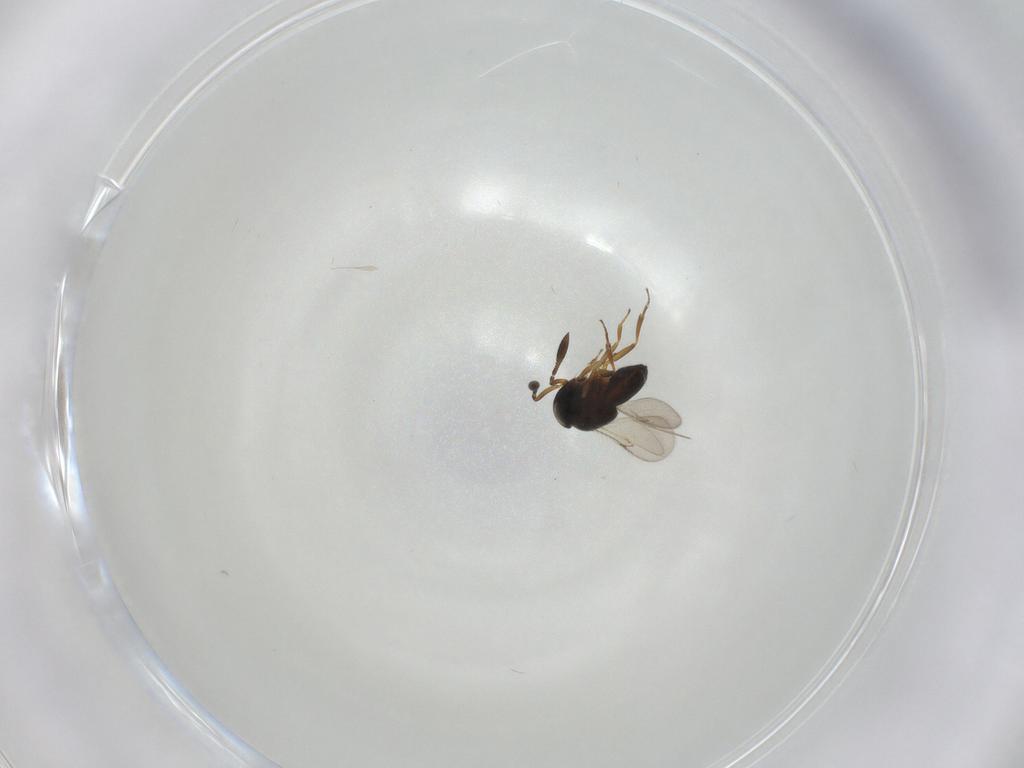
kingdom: Animalia
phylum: Arthropoda
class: Insecta
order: Hymenoptera
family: Scelionidae
